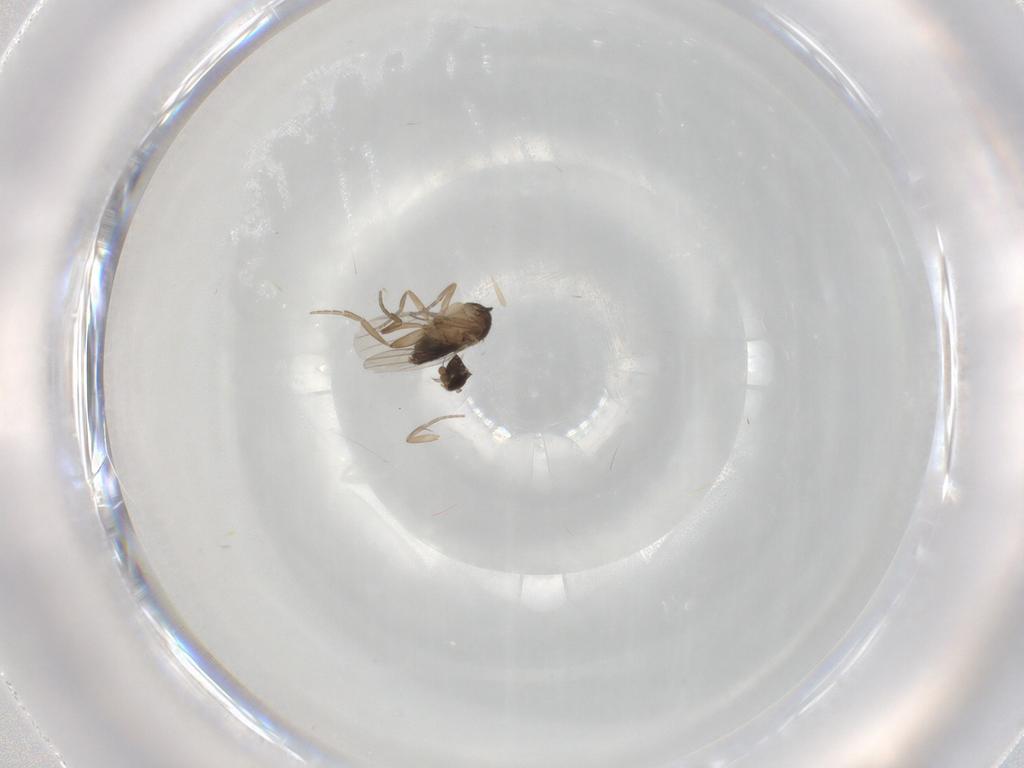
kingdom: Animalia
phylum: Arthropoda
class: Insecta
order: Diptera
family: Phoridae
